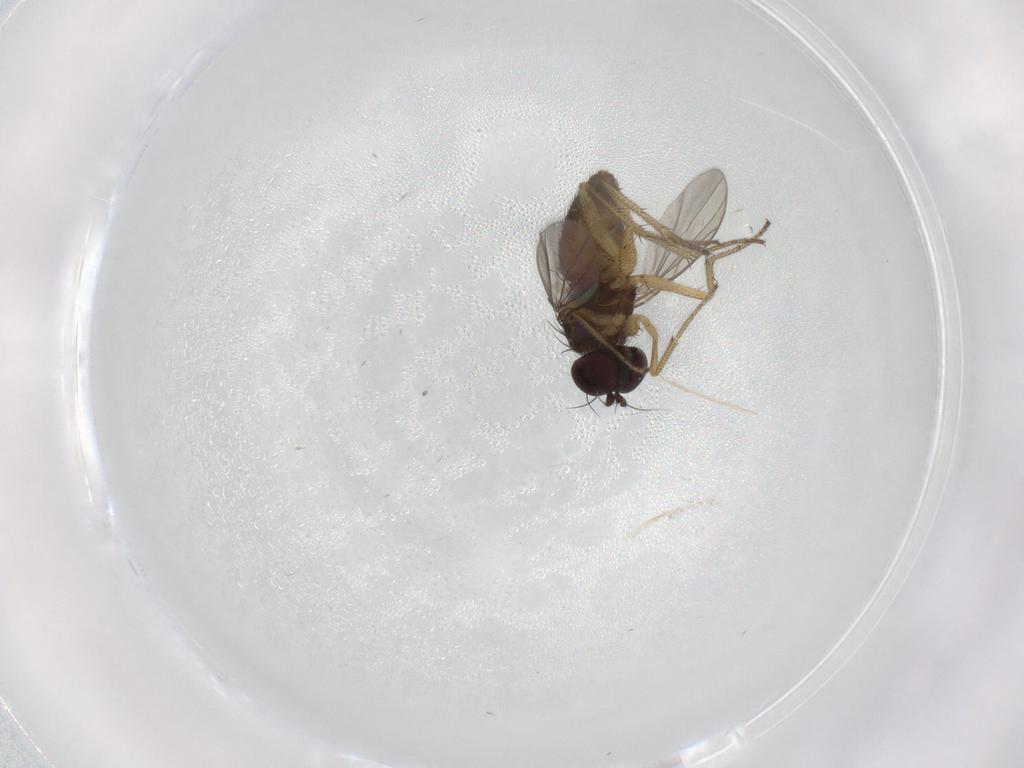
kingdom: Animalia
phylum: Arthropoda
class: Insecta
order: Diptera
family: Dolichopodidae
